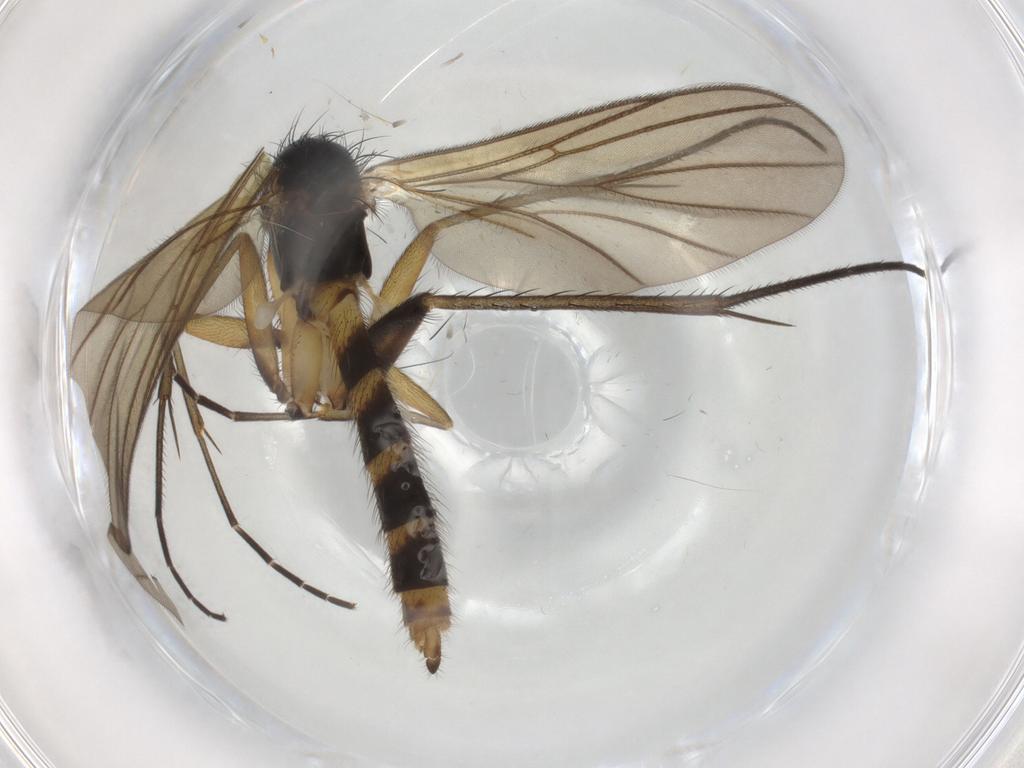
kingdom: Animalia
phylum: Arthropoda
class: Insecta
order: Diptera
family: Mycetophilidae
